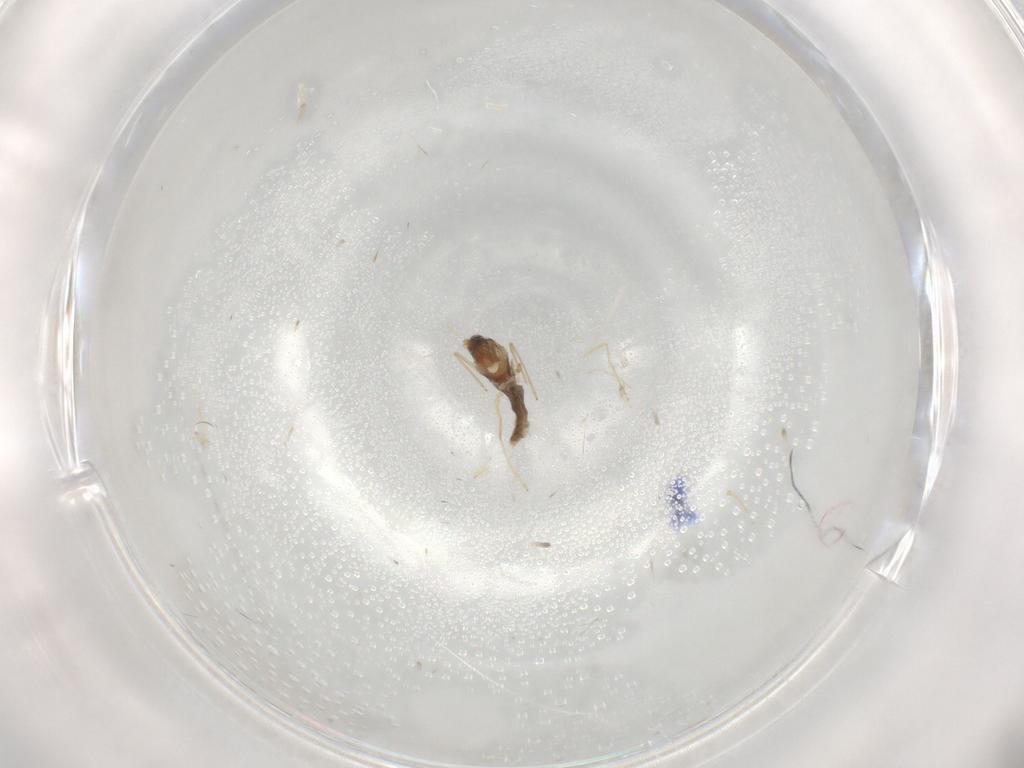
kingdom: Animalia
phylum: Arthropoda
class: Insecta
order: Diptera
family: Cecidomyiidae
